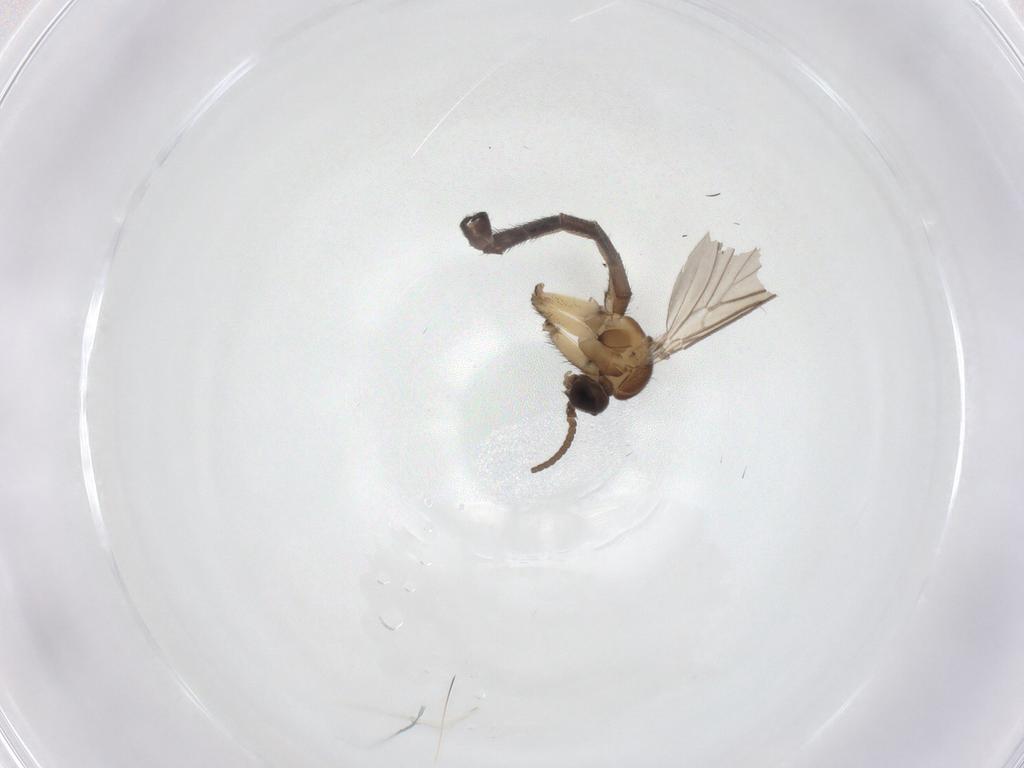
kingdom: Animalia
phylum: Arthropoda
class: Insecta
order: Diptera
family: Keroplatidae
